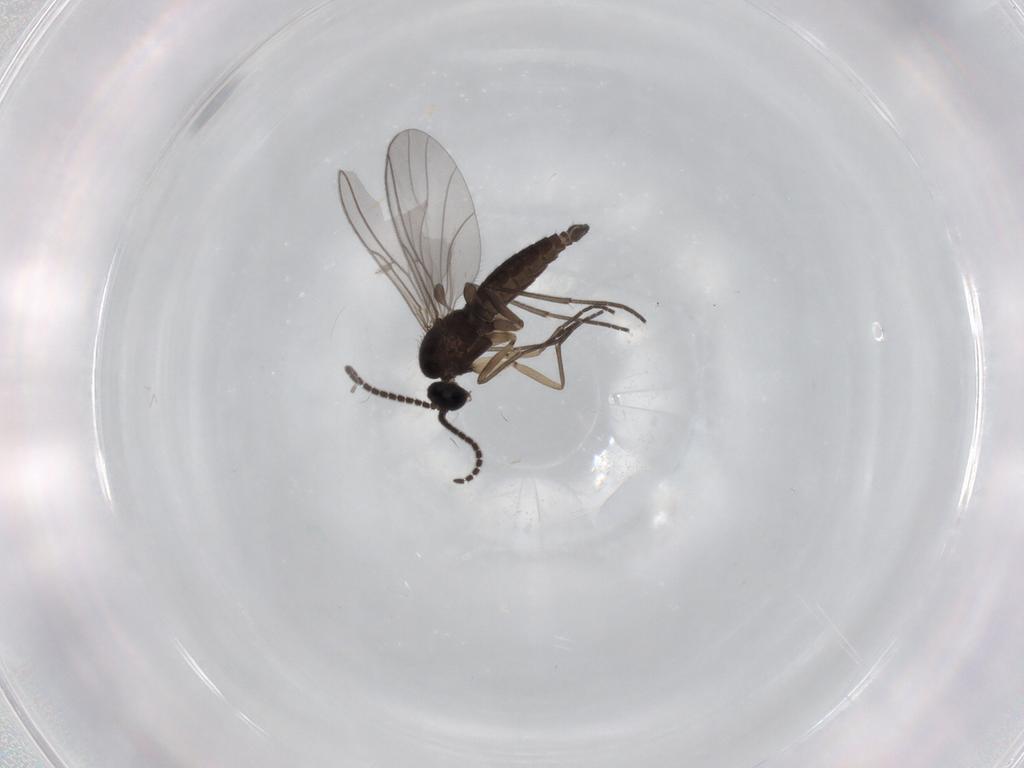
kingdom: Animalia
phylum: Arthropoda
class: Insecta
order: Diptera
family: Sciaridae
